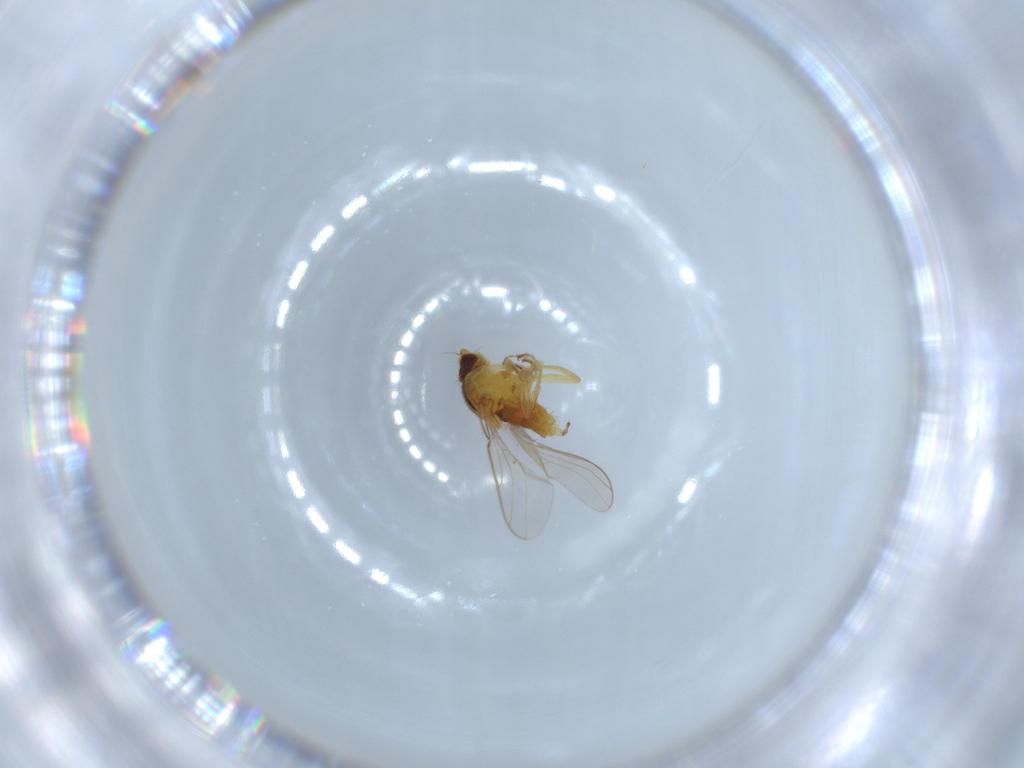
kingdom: Animalia
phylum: Arthropoda
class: Insecta
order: Diptera
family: Chloropidae
